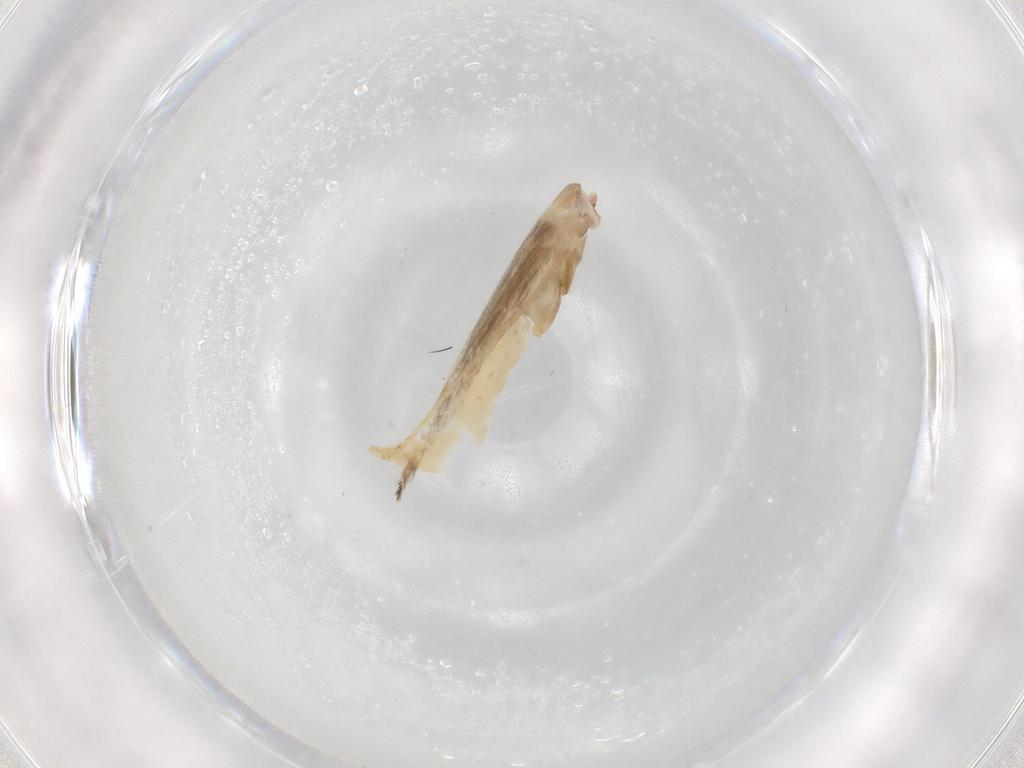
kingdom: Animalia
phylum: Arthropoda
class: Insecta
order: Lepidoptera
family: Gracillariidae
